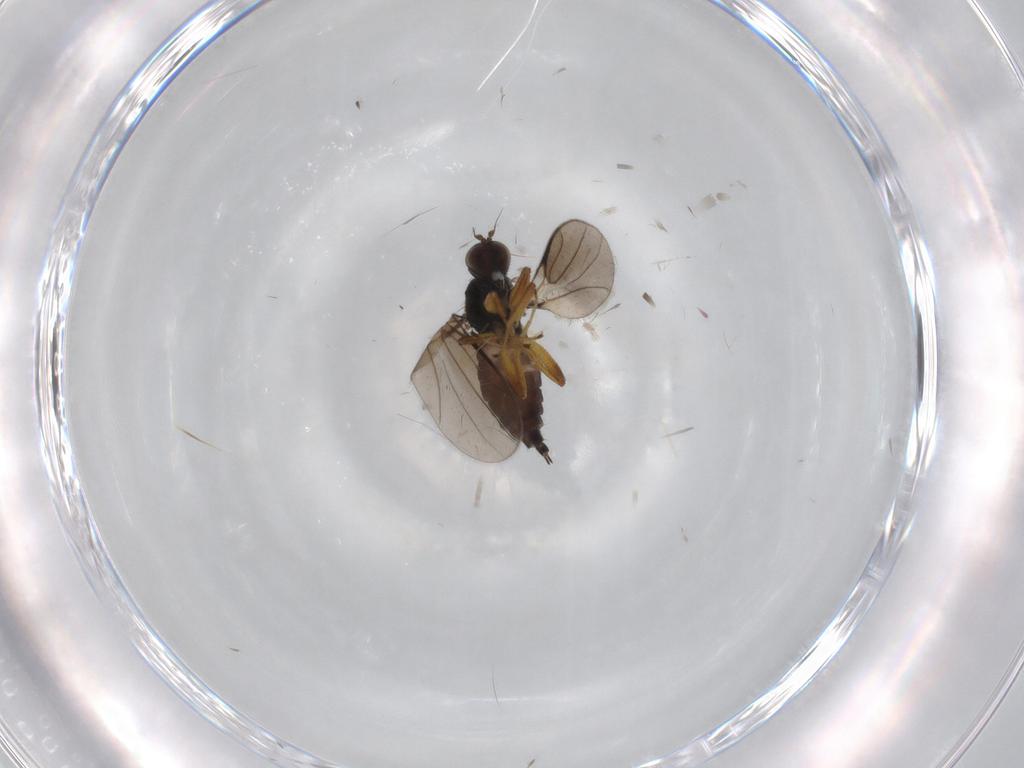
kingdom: Animalia
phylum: Arthropoda
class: Insecta
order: Diptera
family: Hybotidae
